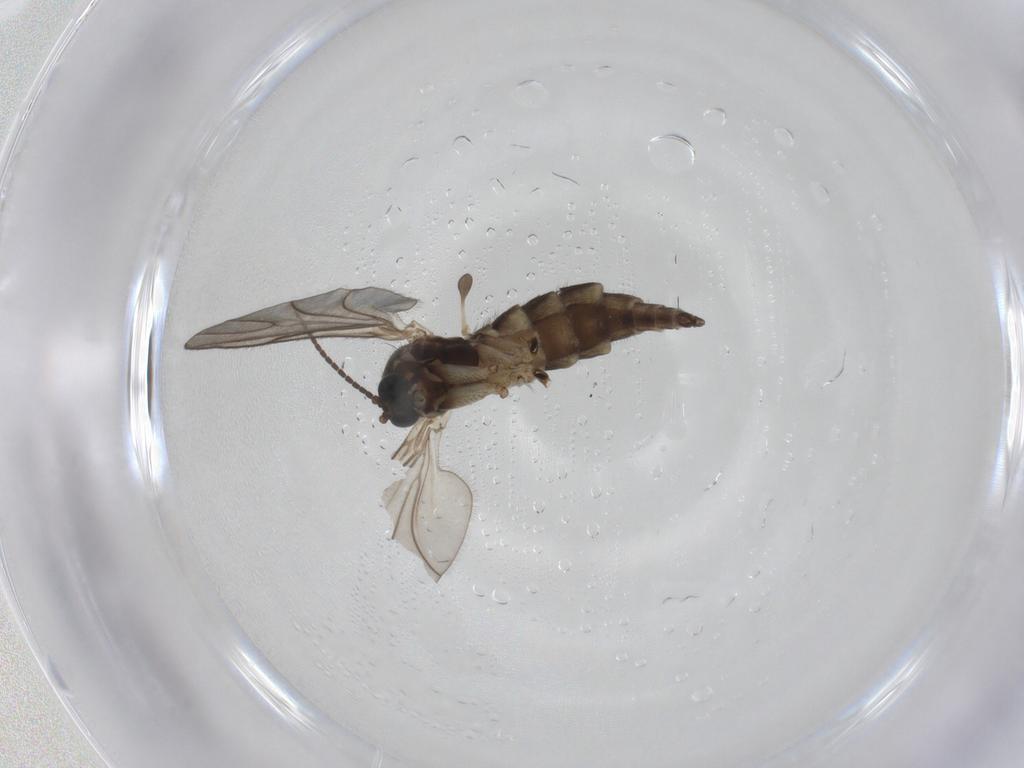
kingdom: Animalia
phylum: Arthropoda
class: Insecta
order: Diptera
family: Sciaridae
